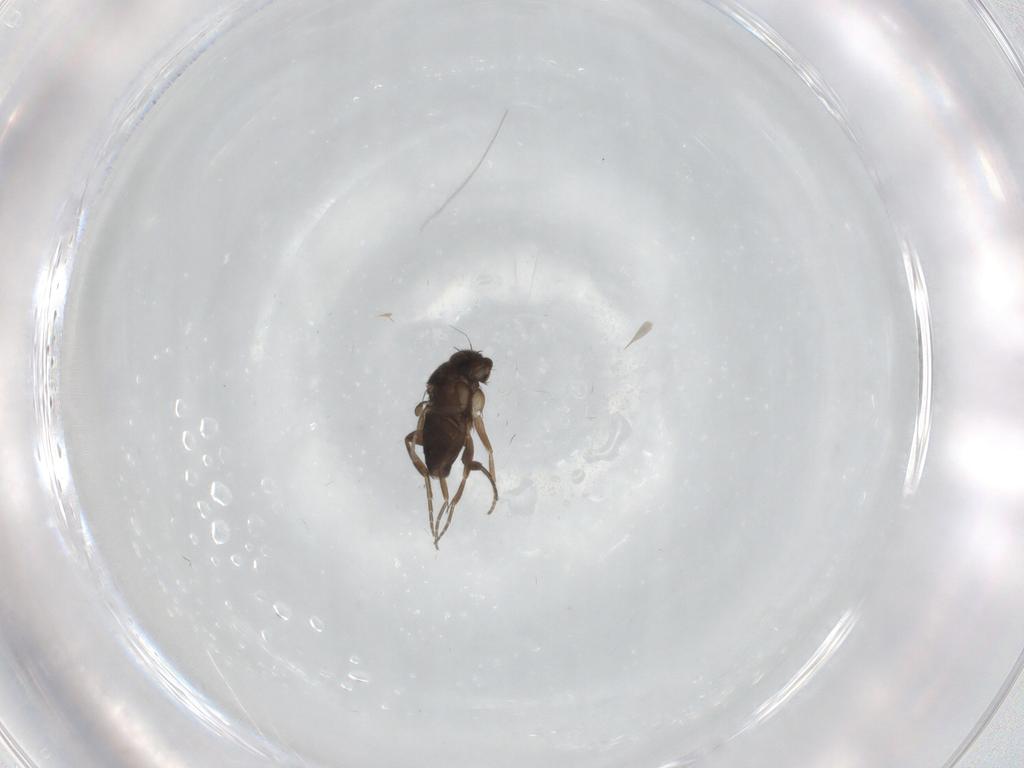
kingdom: Animalia
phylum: Arthropoda
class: Insecta
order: Diptera
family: Phoridae
